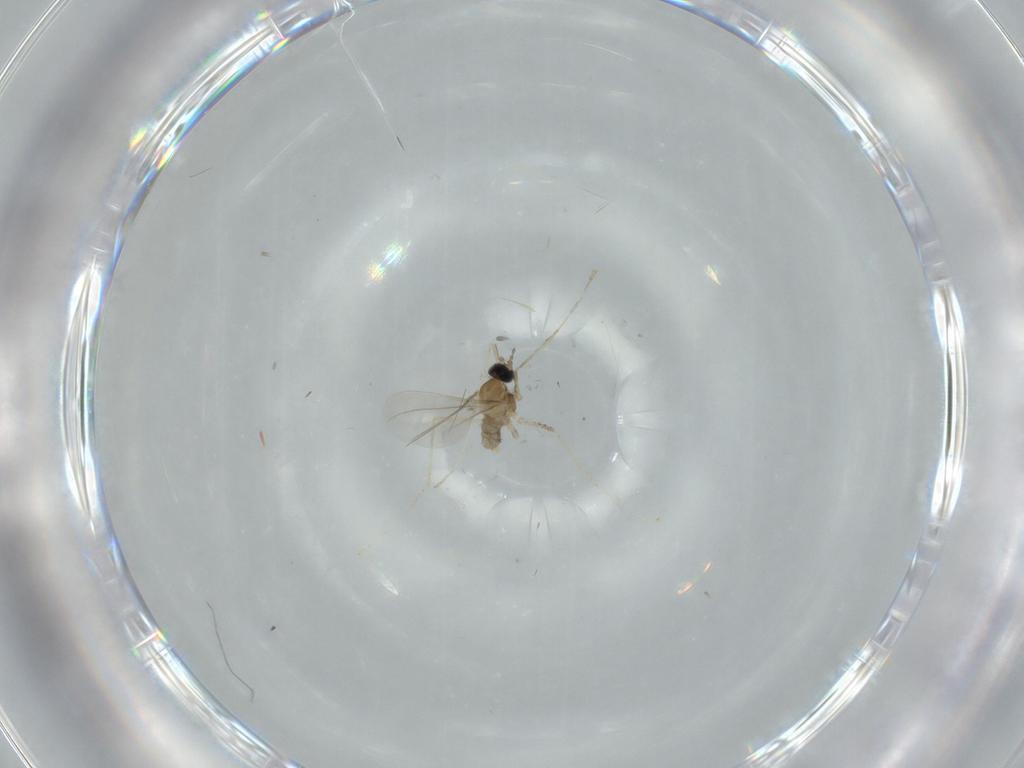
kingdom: Animalia
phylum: Arthropoda
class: Insecta
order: Diptera
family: Cecidomyiidae
